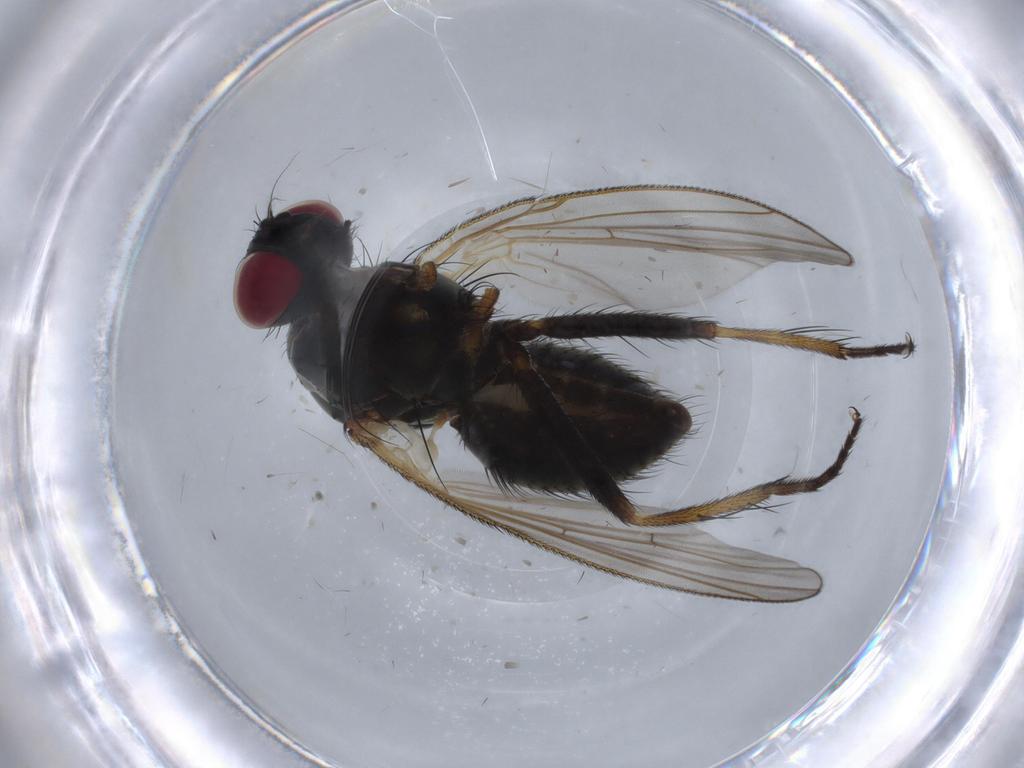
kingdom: Animalia
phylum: Arthropoda
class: Insecta
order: Diptera
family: Muscidae
